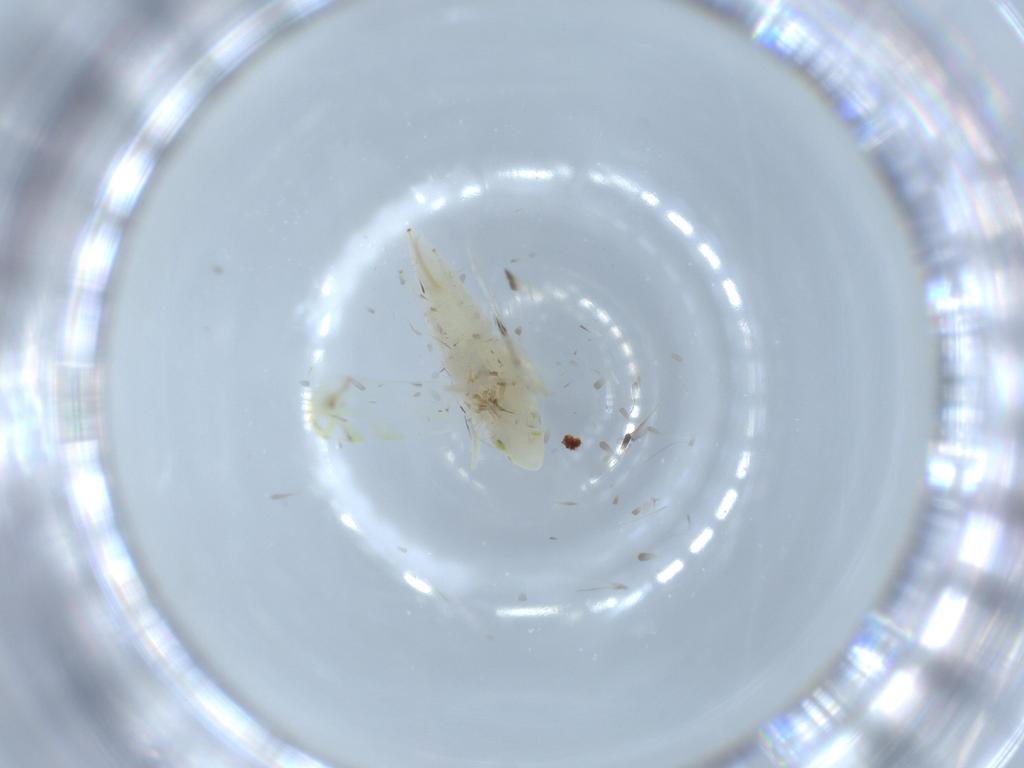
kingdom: Animalia
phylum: Arthropoda
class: Insecta
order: Hemiptera
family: Cicadellidae
